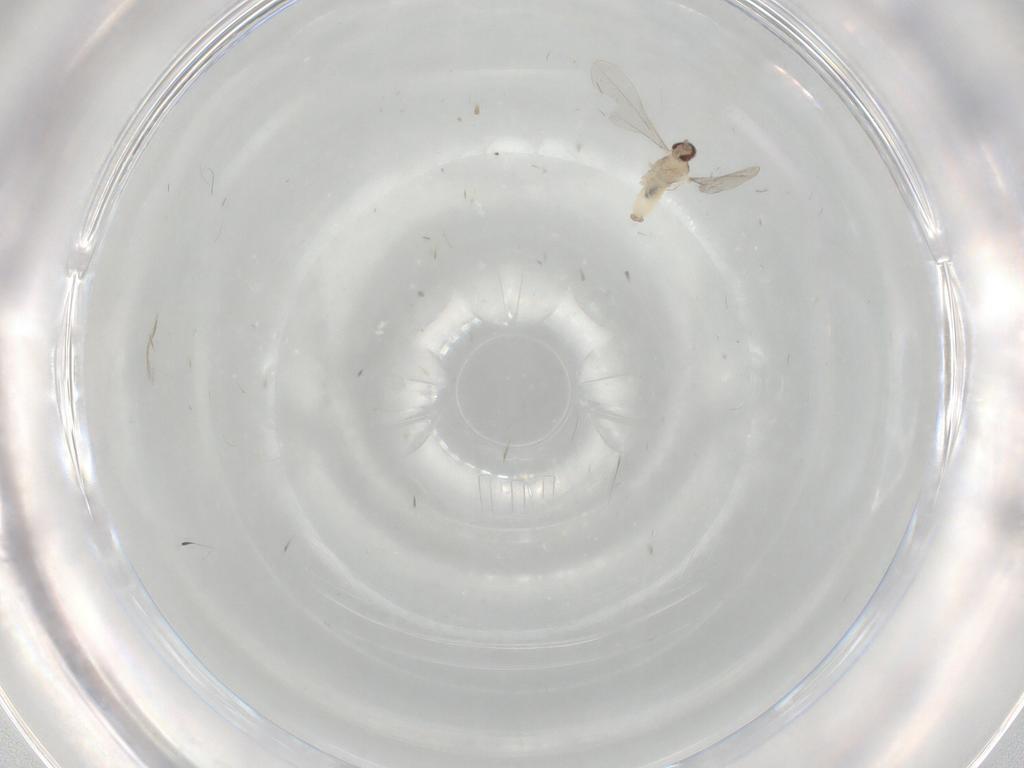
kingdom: Animalia
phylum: Arthropoda
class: Insecta
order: Diptera
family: Cecidomyiidae
